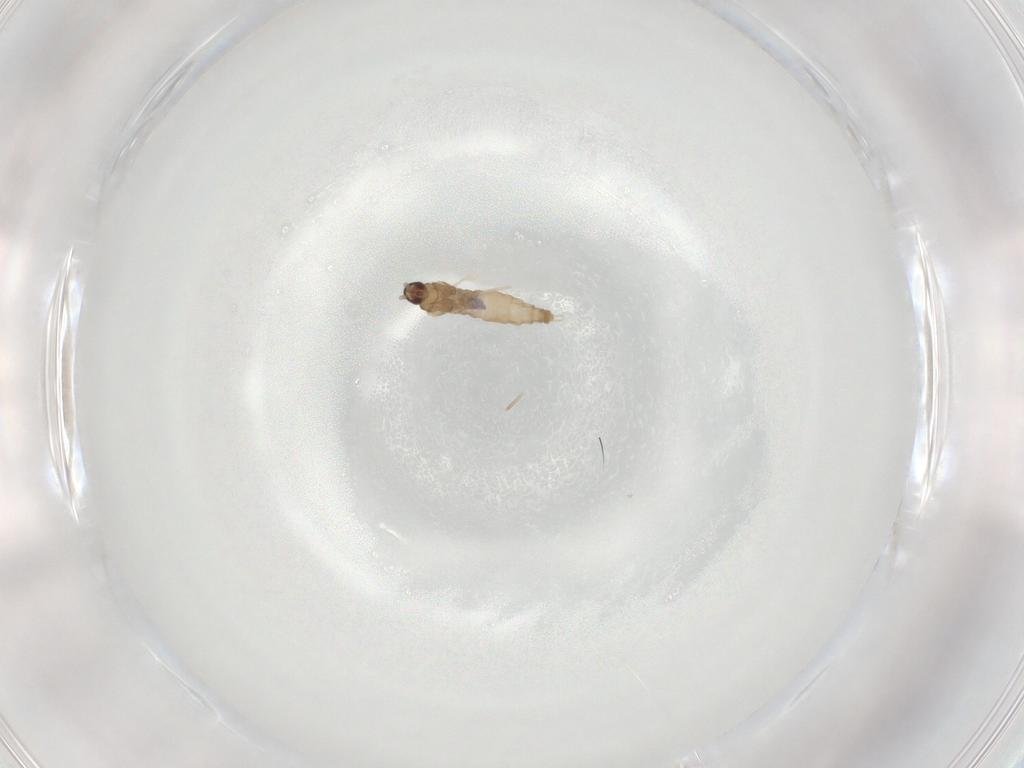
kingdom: Animalia
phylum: Arthropoda
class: Insecta
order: Diptera
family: Cecidomyiidae
